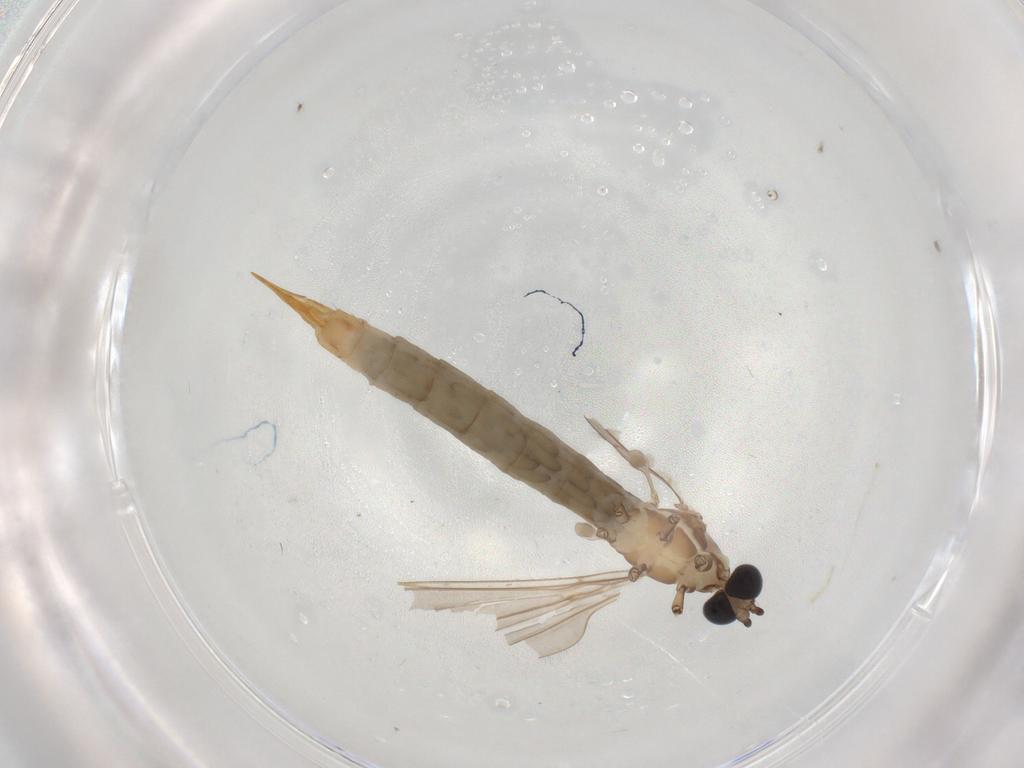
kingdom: Animalia
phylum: Arthropoda
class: Insecta
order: Diptera
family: Limoniidae
